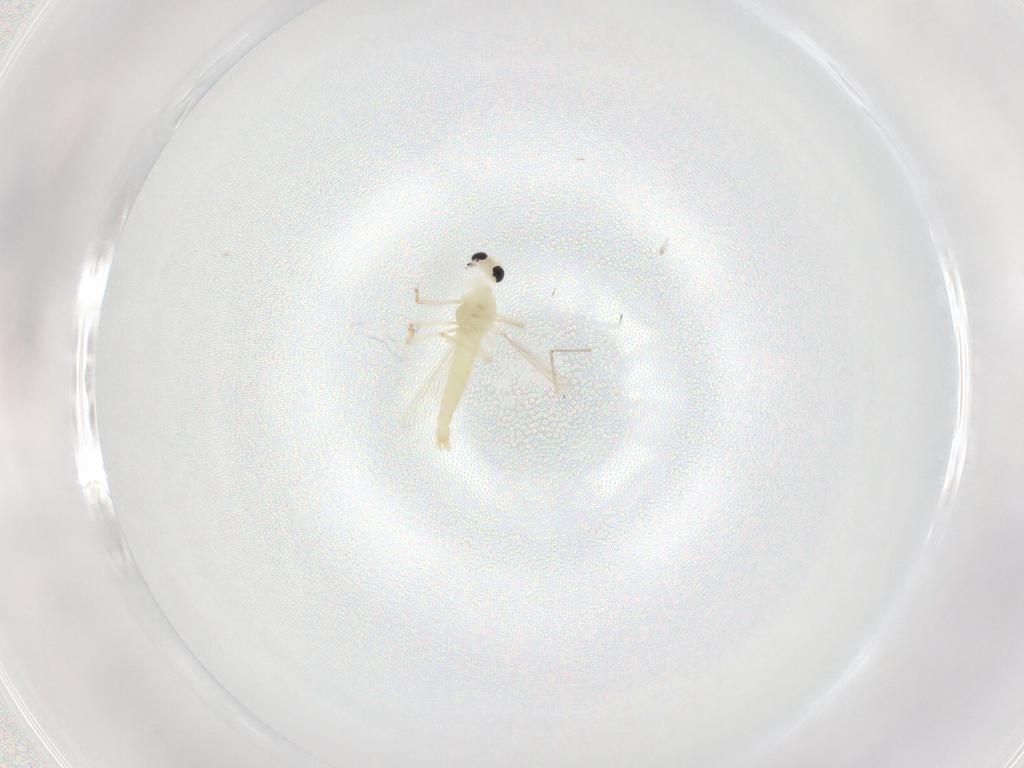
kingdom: Animalia
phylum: Arthropoda
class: Insecta
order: Diptera
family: Chironomidae
